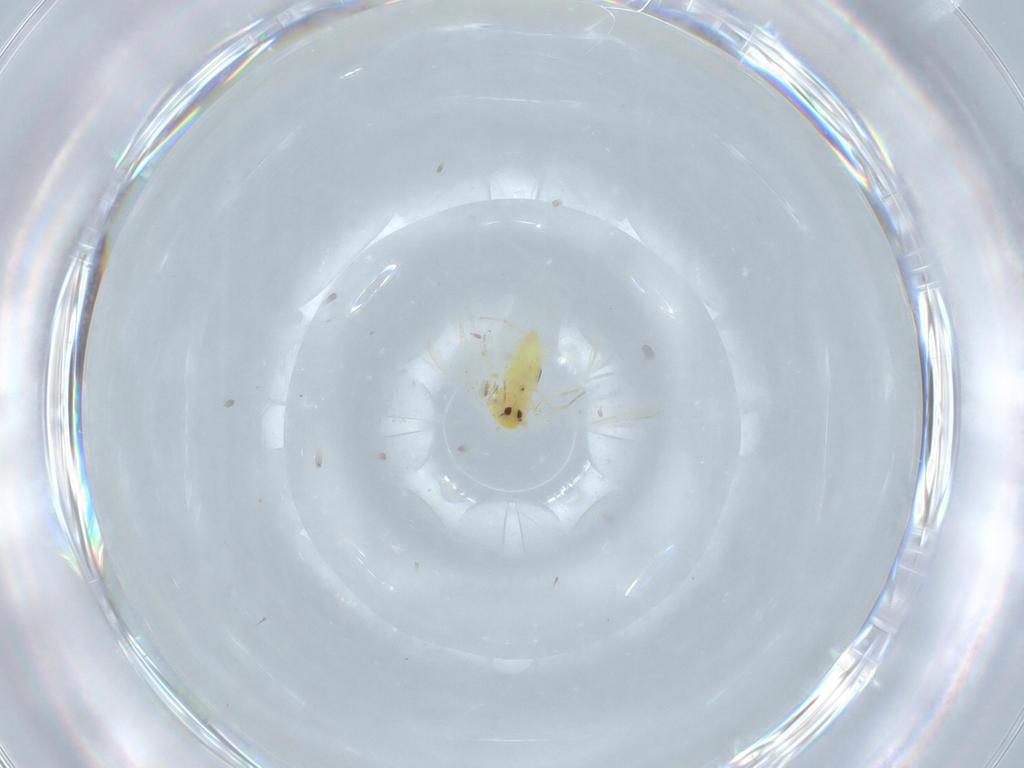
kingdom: Animalia
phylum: Arthropoda
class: Insecta
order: Hemiptera
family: Aleyrodidae
